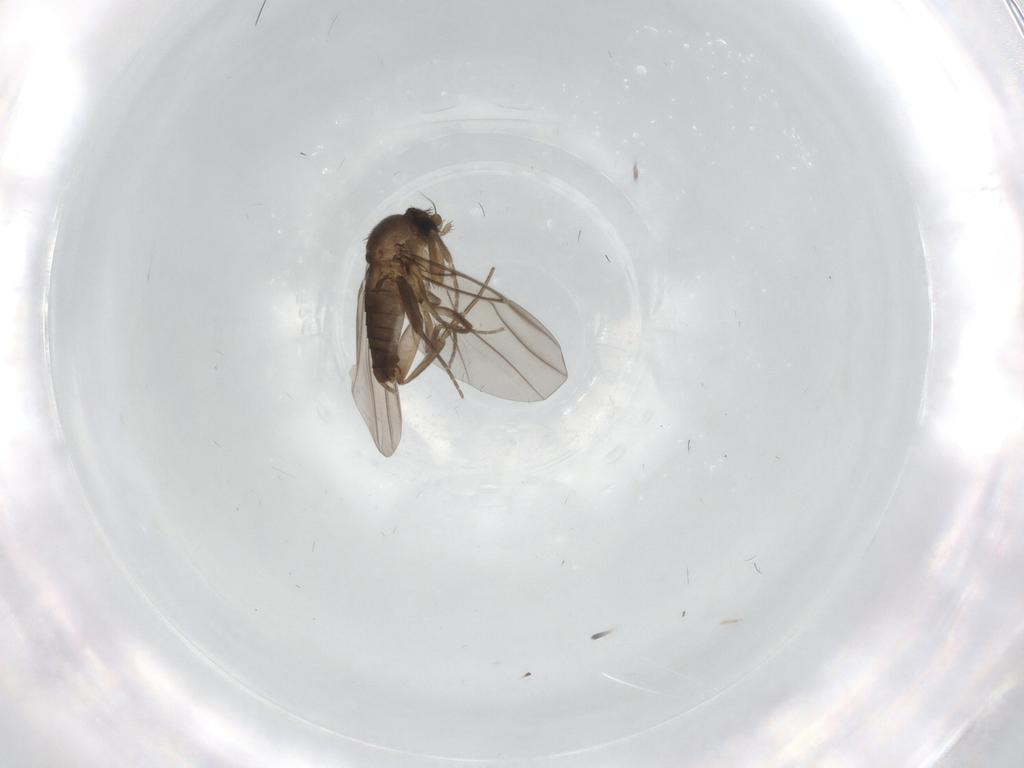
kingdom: Animalia
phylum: Arthropoda
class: Insecta
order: Diptera
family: Phoridae
